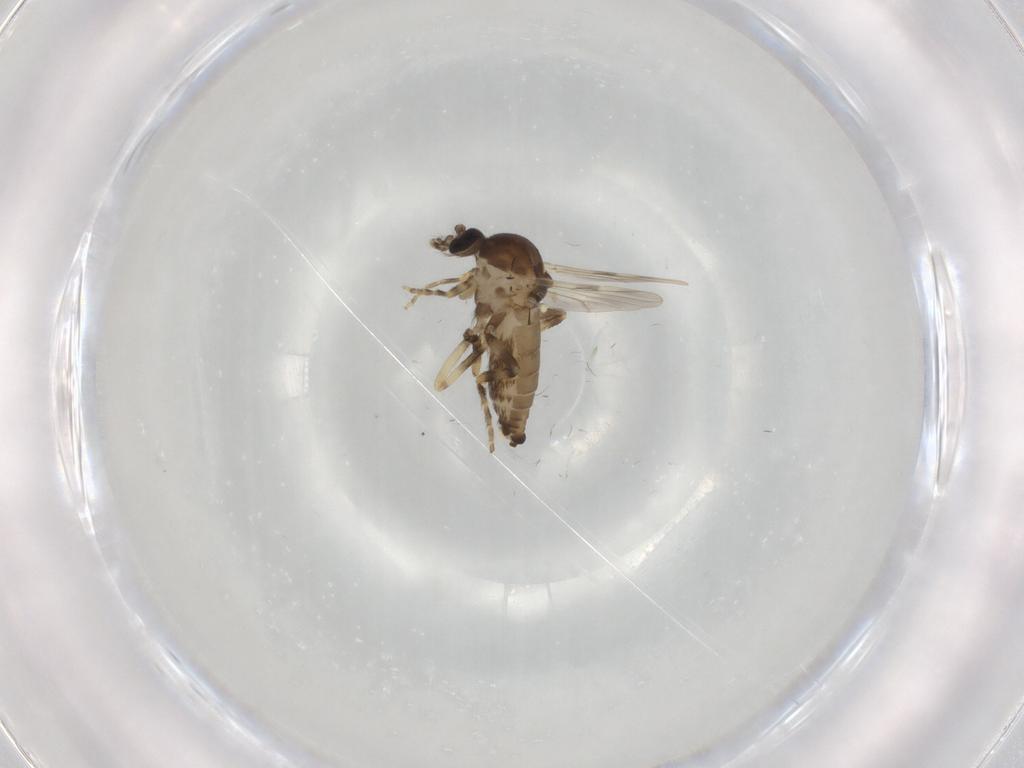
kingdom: Animalia
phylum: Arthropoda
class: Insecta
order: Diptera
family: Ceratopogonidae
